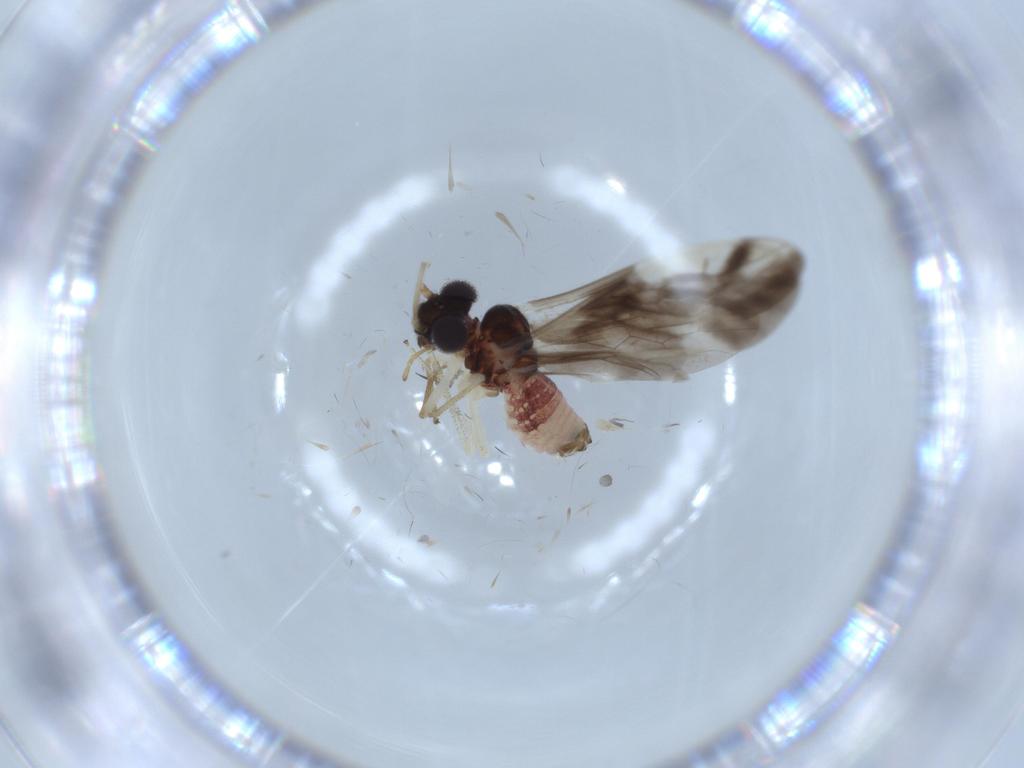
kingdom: Animalia
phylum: Arthropoda
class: Insecta
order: Psocodea
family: Caeciliusidae
